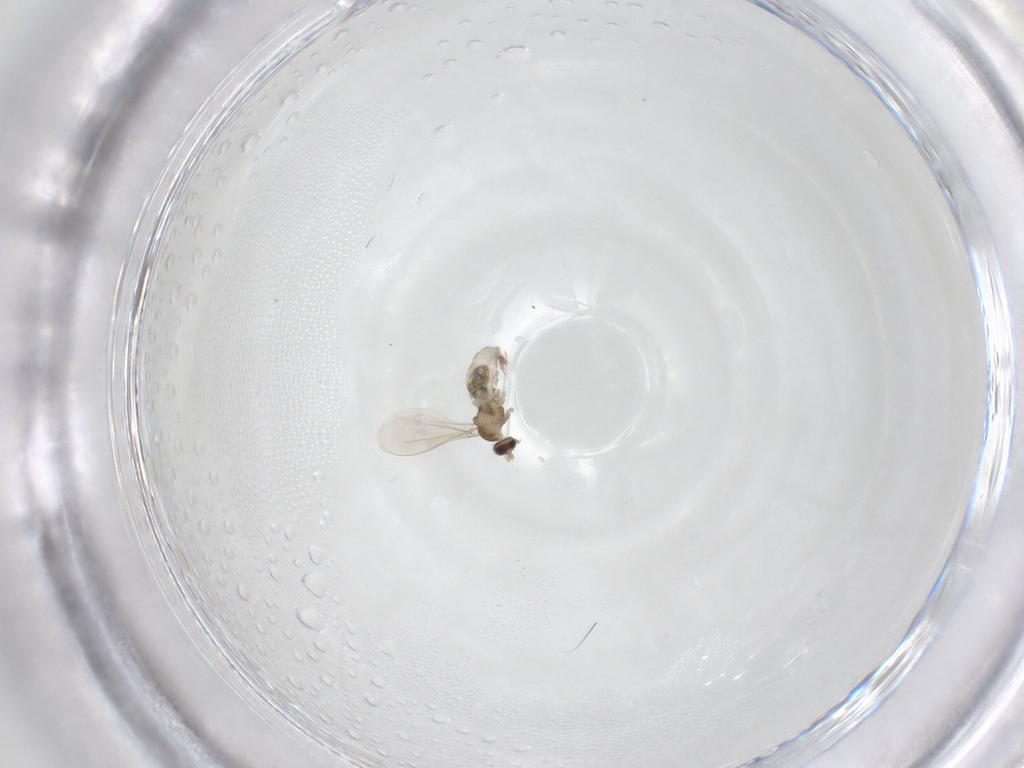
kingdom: Animalia
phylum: Arthropoda
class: Insecta
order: Diptera
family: Cecidomyiidae
